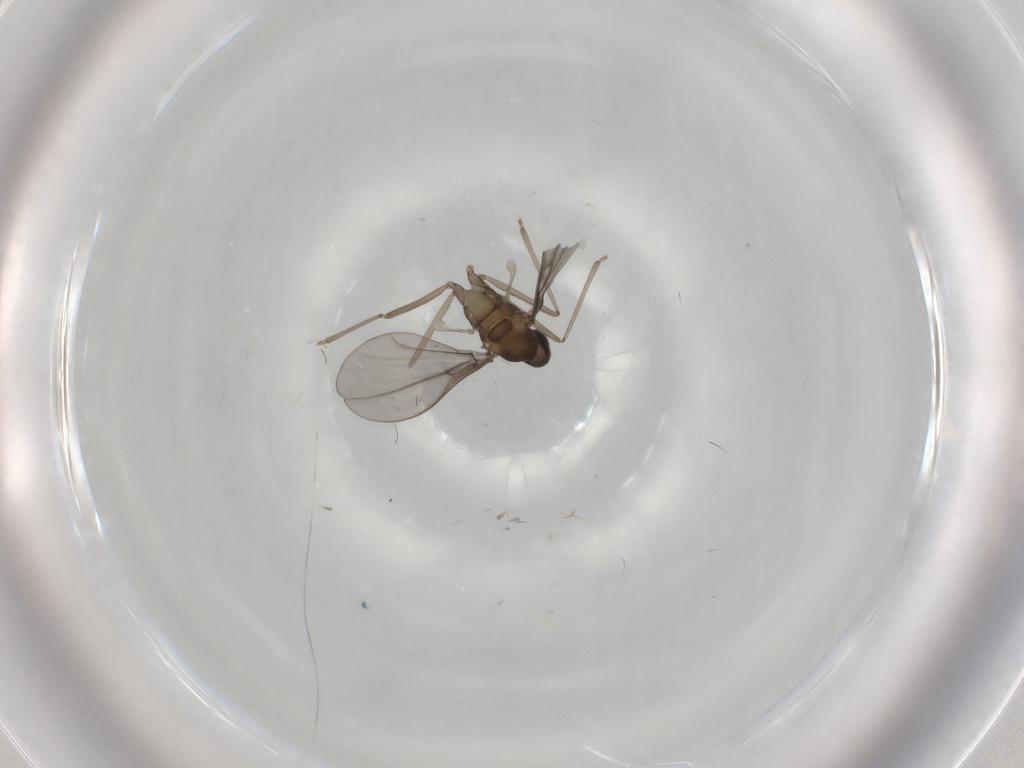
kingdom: Animalia
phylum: Arthropoda
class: Insecta
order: Diptera
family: Cecidomyiidae
